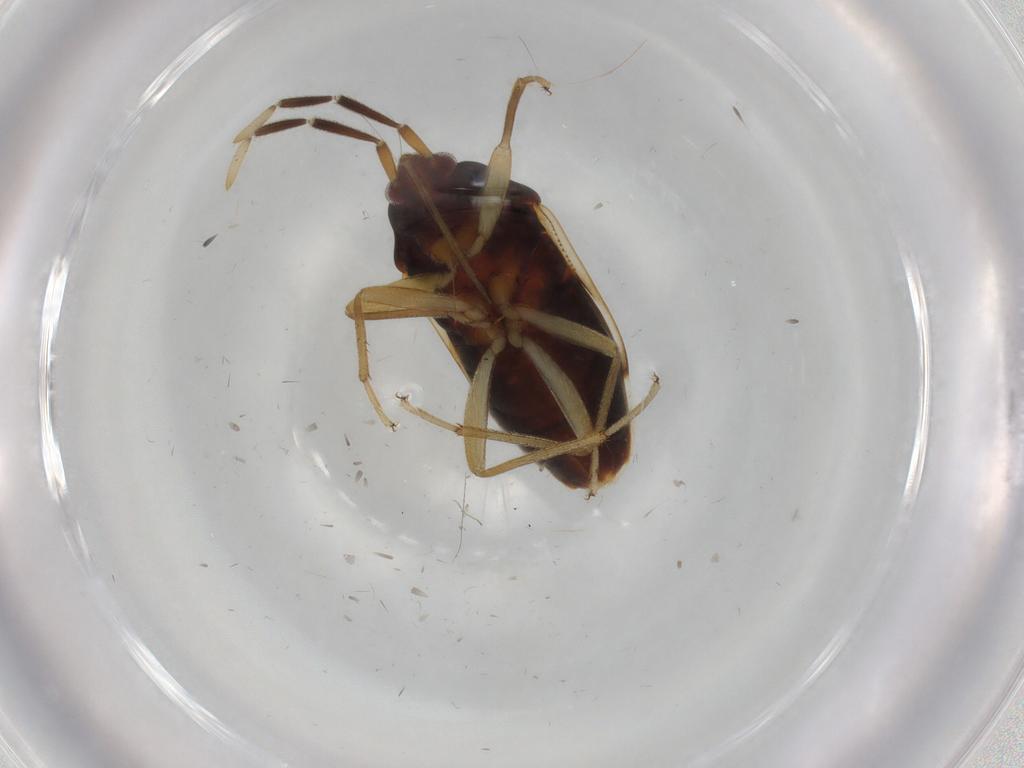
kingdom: Animalia
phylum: Arthropoda
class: Insecta
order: Hemiptera
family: Rhyparochromidae
